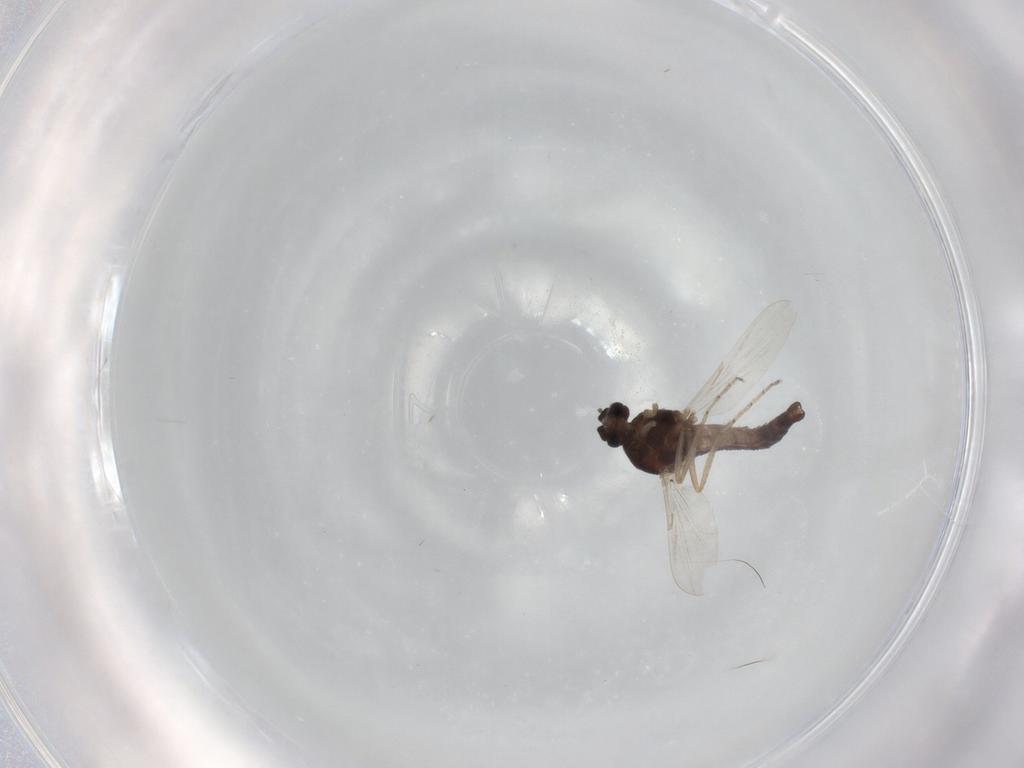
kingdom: Animalia
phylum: Arthropoda
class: Insecta
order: Diptera
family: Ceratopogonidae
